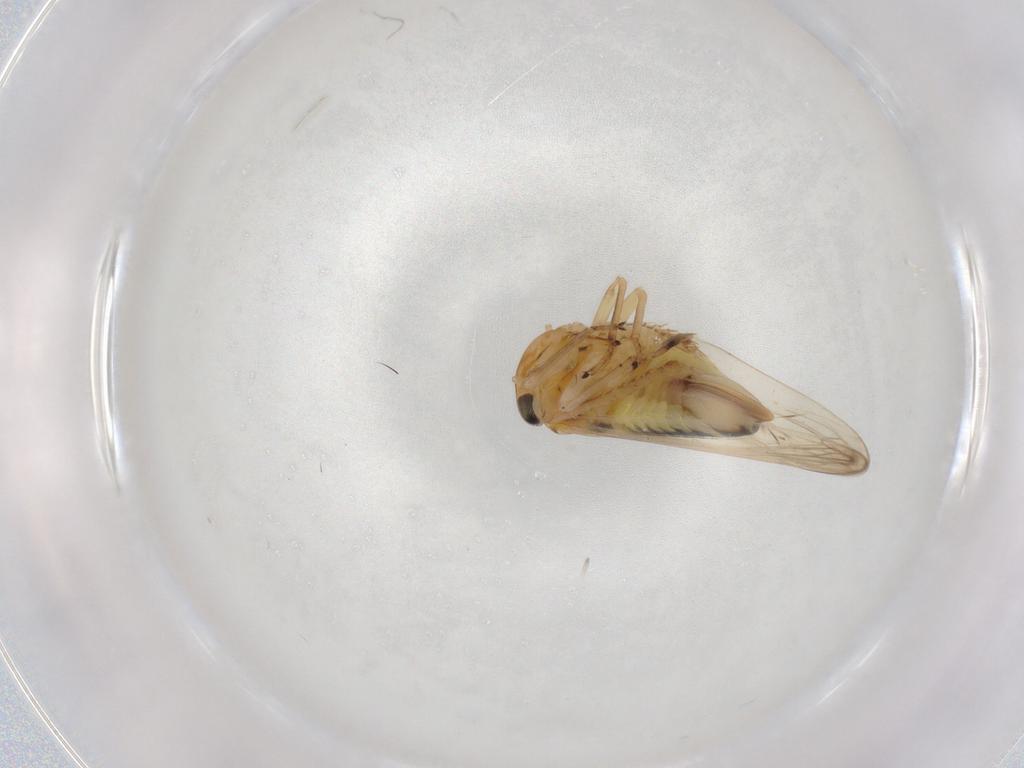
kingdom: Animalia
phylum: Arthropoda
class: Insecta
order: Hemiptera
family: Cicadellidae
